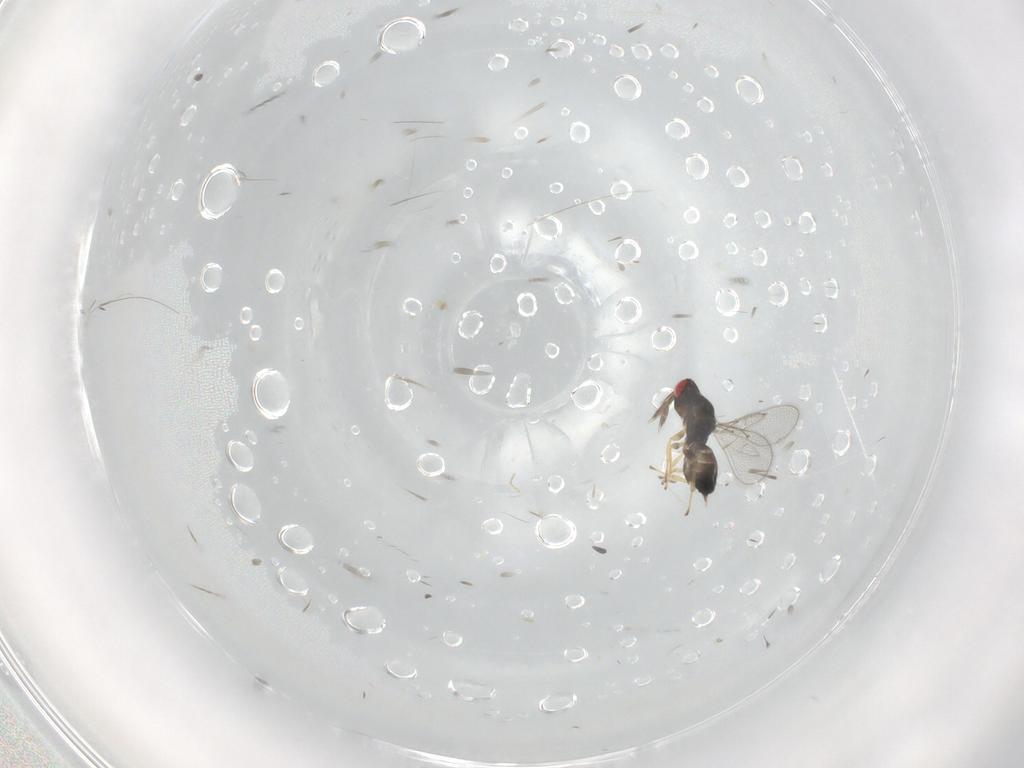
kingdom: Animalia
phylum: Arthropoda
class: Insecta
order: Hymenoptera
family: Eulophidae
